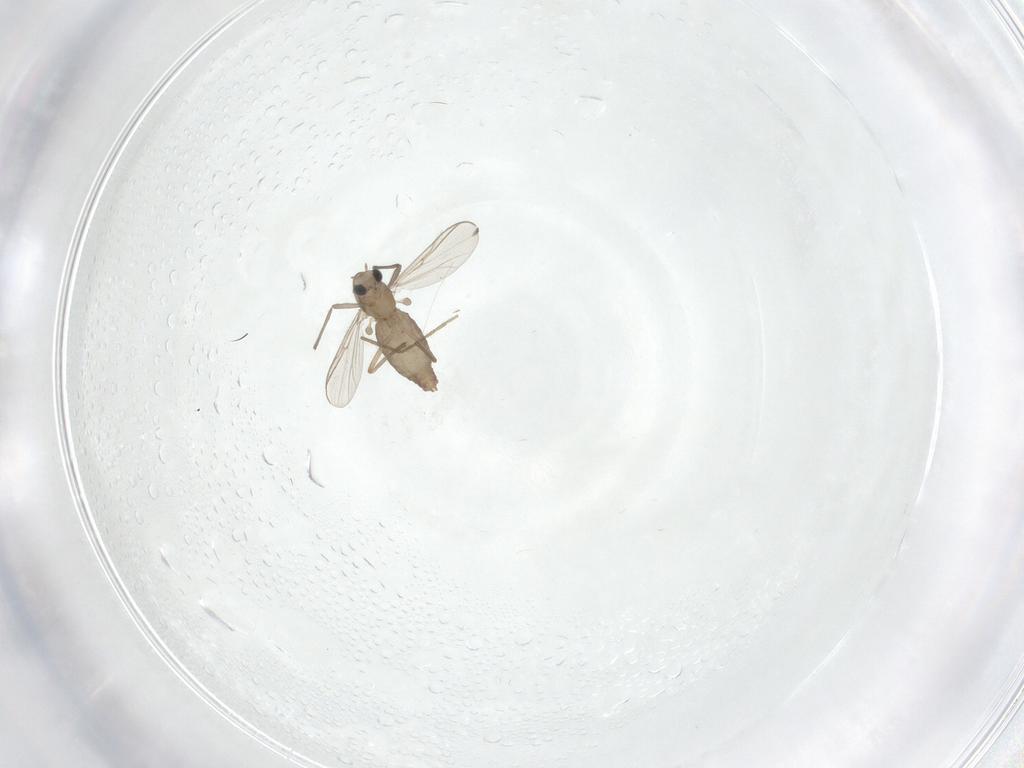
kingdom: Animalia
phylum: Arthropoda
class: Insecta
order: Diptera
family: Chironomidae
